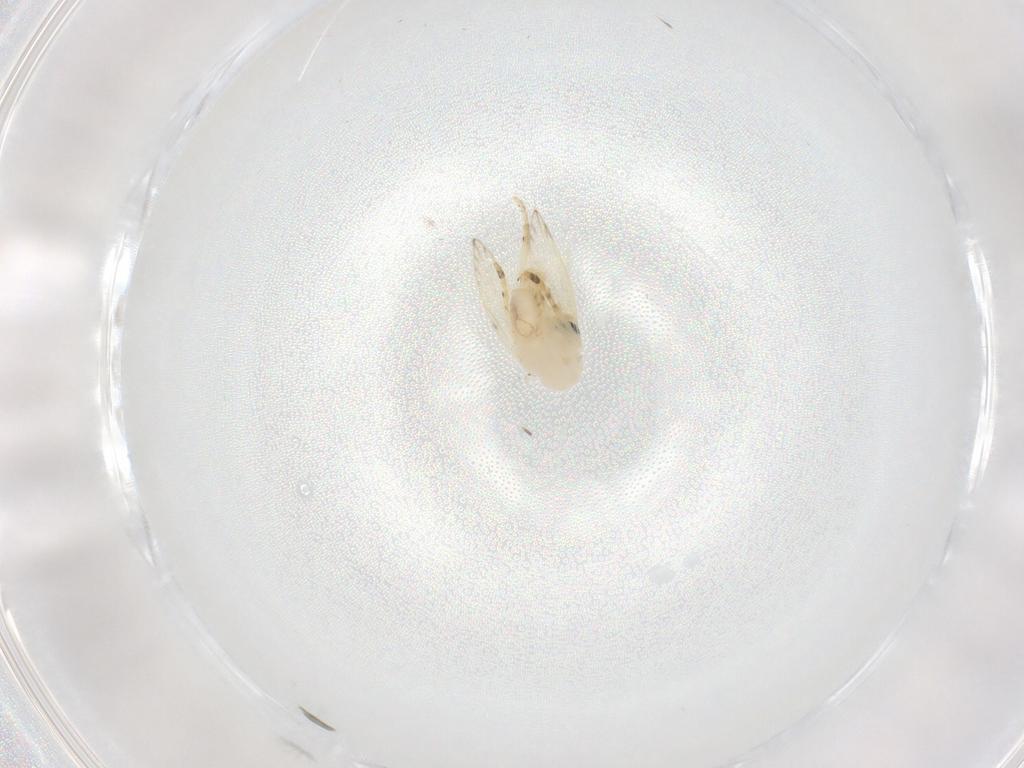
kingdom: Animalia
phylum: Arthropoda
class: Insecta
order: Diptera
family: Psychodidae
